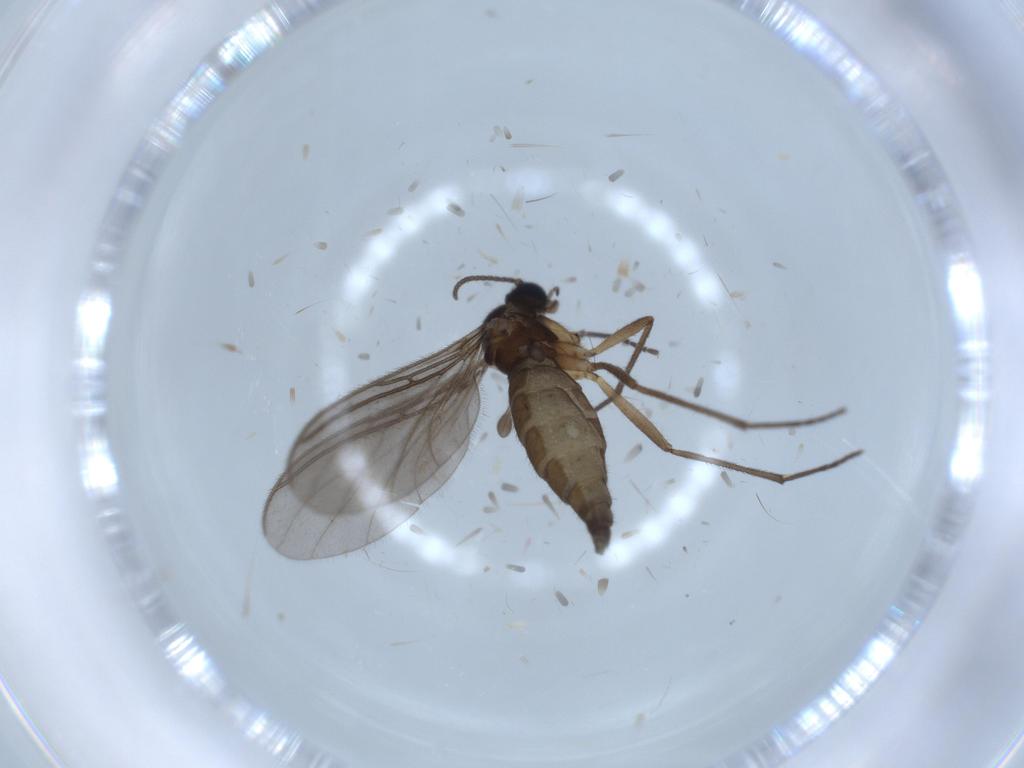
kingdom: Animalia
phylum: Arthropoda
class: Insecta
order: Diptera
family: Sciaridae
